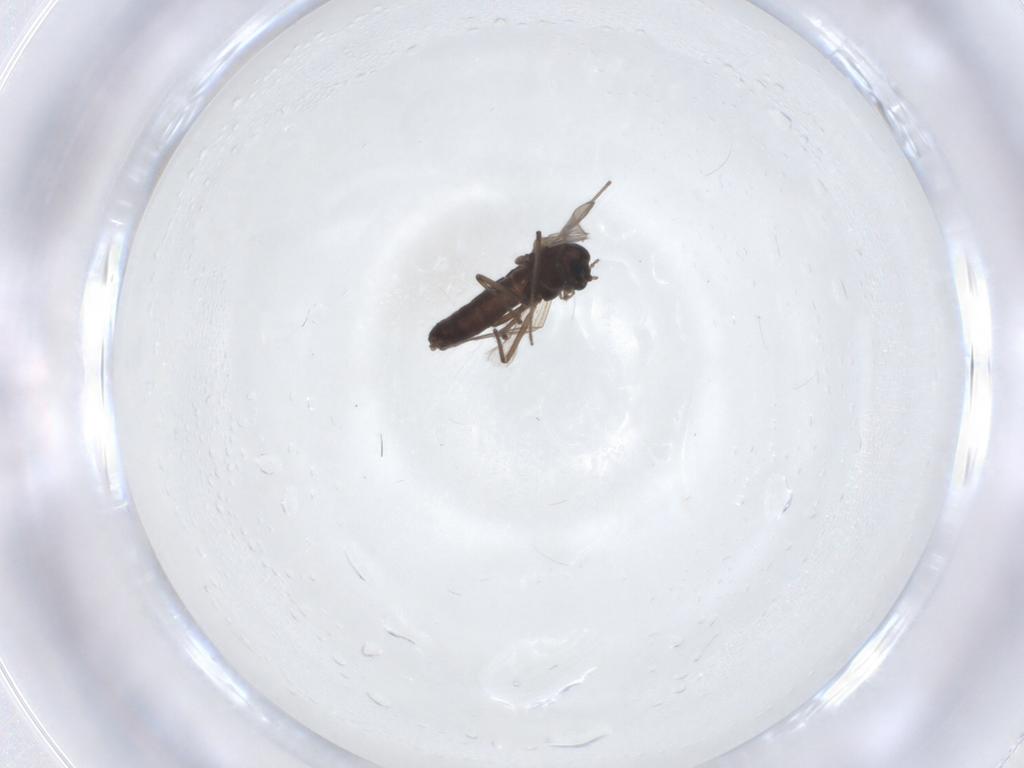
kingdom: Animalia
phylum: Arthropoda
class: Insecta
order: Diptera
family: Chironomidae
